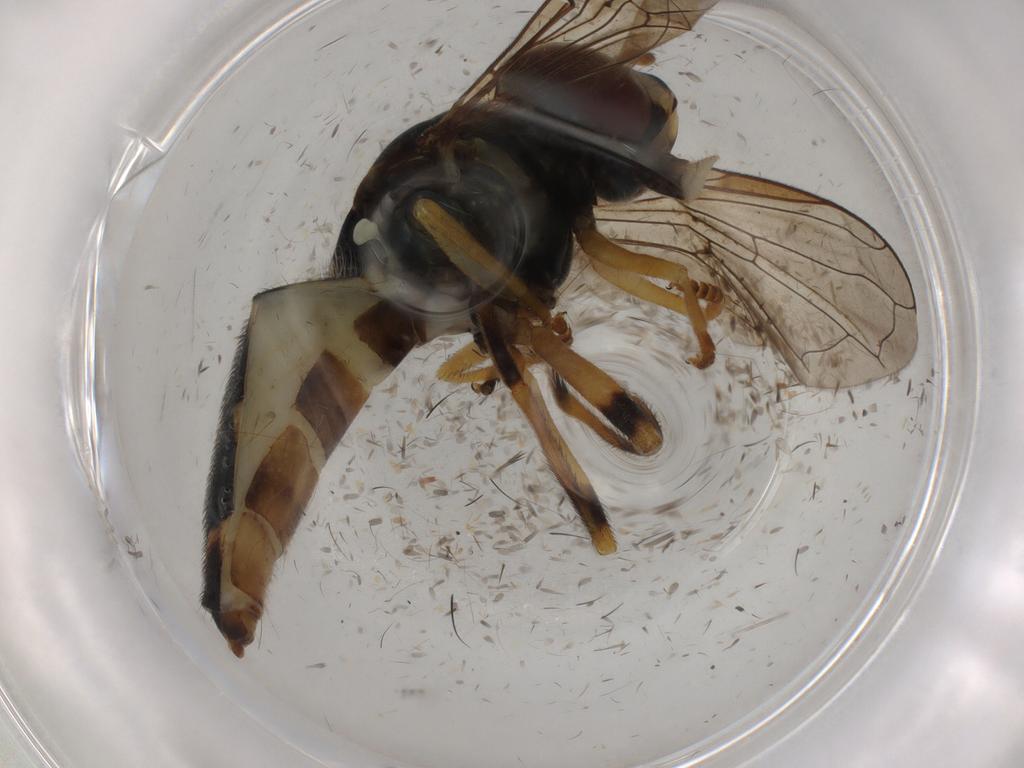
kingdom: Animalia
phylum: Arthropoda
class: Insecta
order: Diptera
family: Syrphidae
